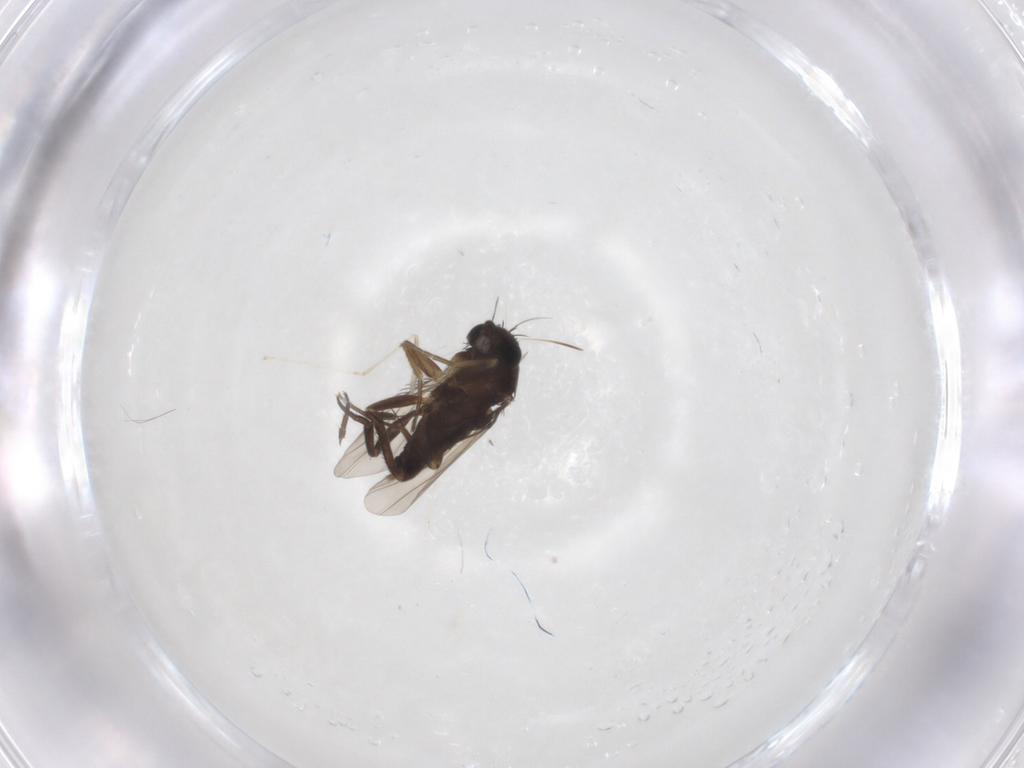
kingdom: Animalia
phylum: Arthropoda
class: Insecta
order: Diptera
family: Phoridae
